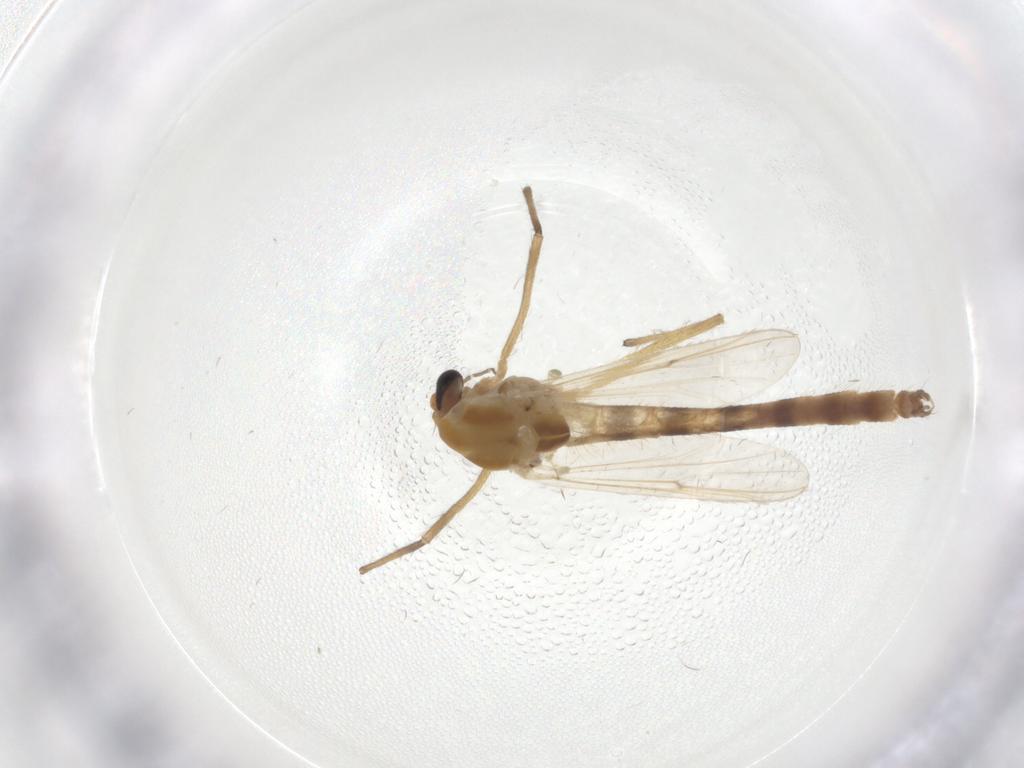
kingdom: Animalia
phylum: Arthropoda
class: Insecta
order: Diptera
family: Chironomidae
